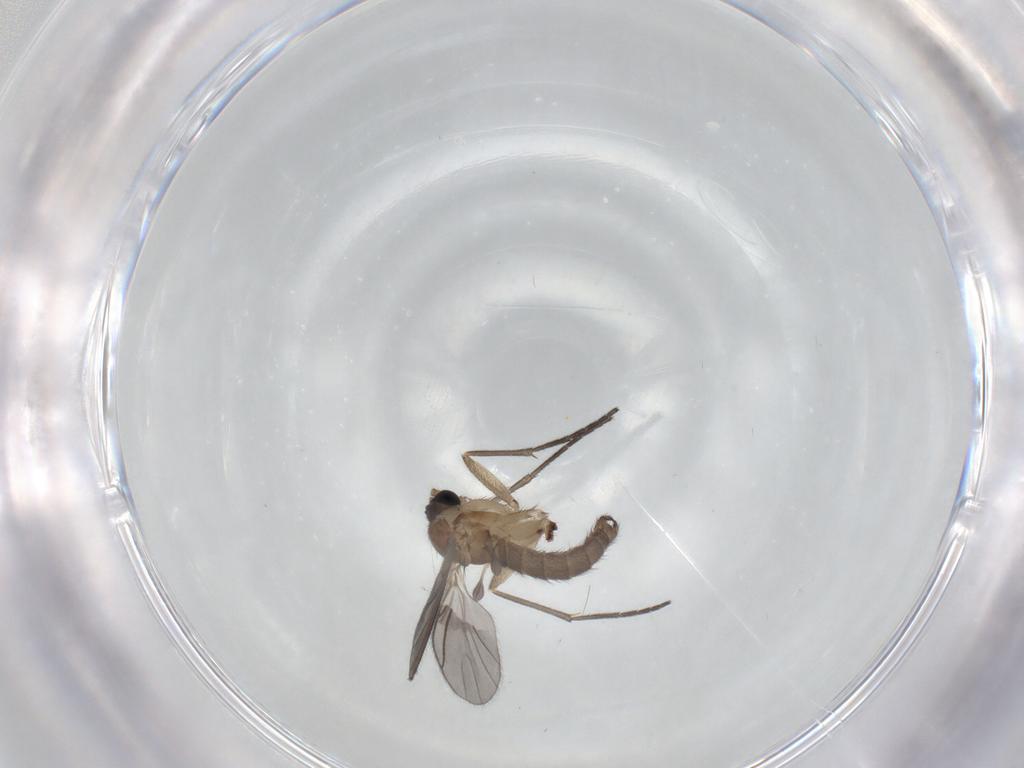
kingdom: Animalia
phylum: Arthropoda
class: Insecta
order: Diptera
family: Sciaridae
